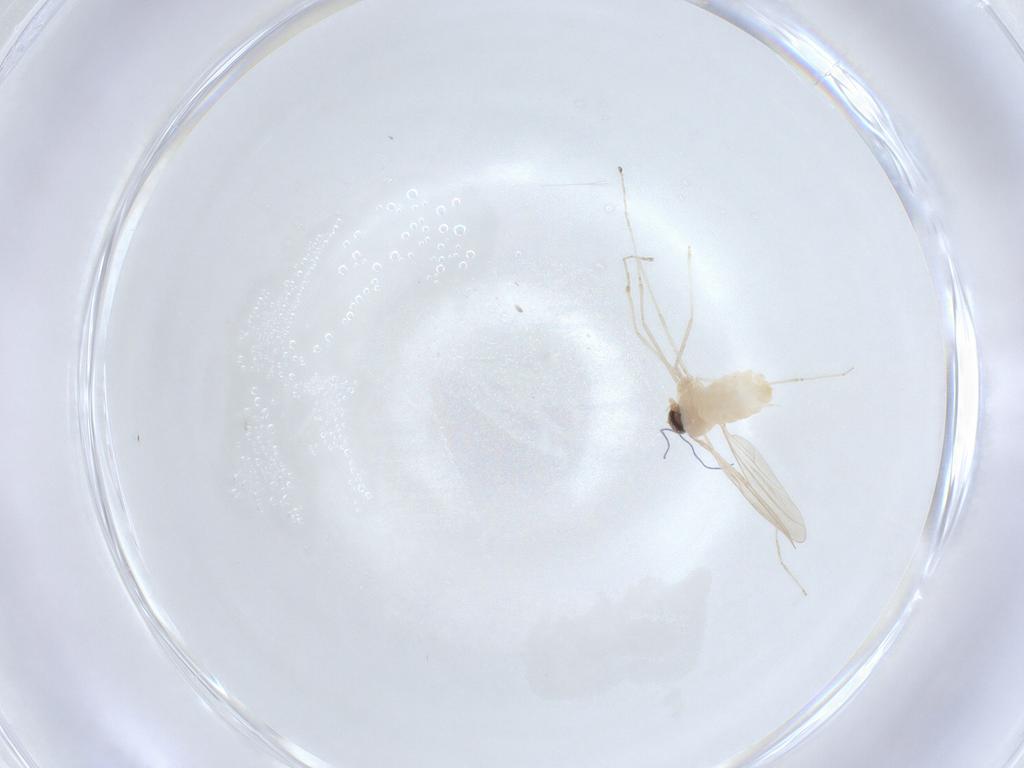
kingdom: Animalia
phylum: Arthropoda
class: Insecta
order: Diptera
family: Cecidomyiidae
